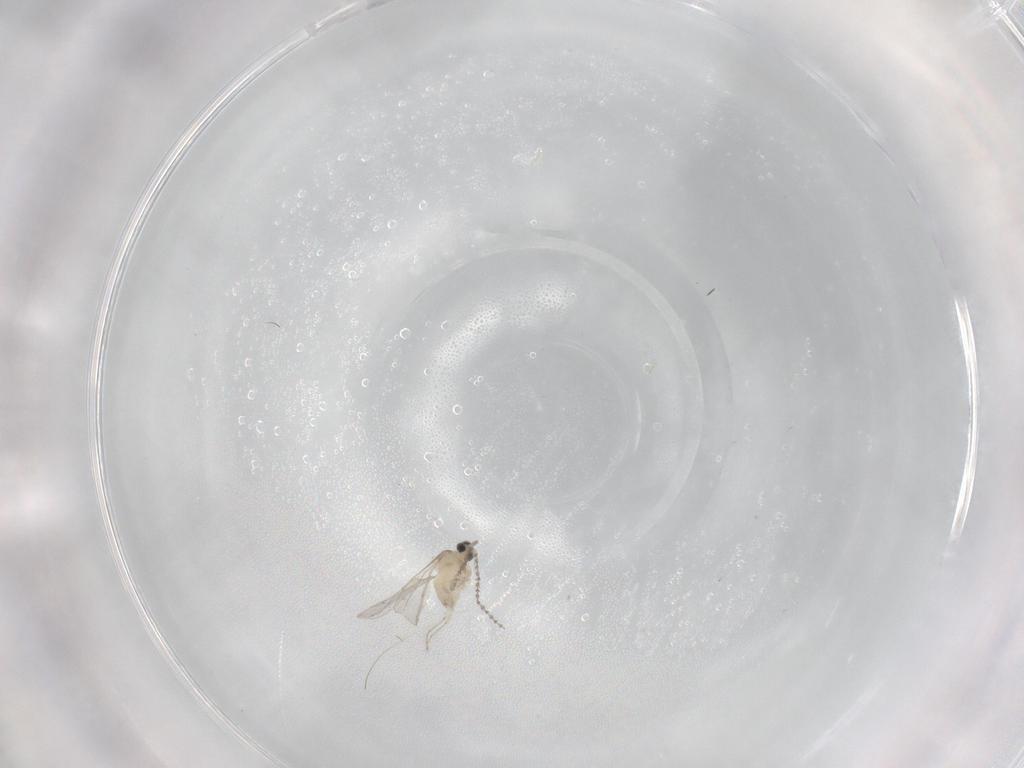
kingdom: Animalia
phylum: Arthropoda
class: Insecta
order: Diptera
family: Cecidomyiidae
